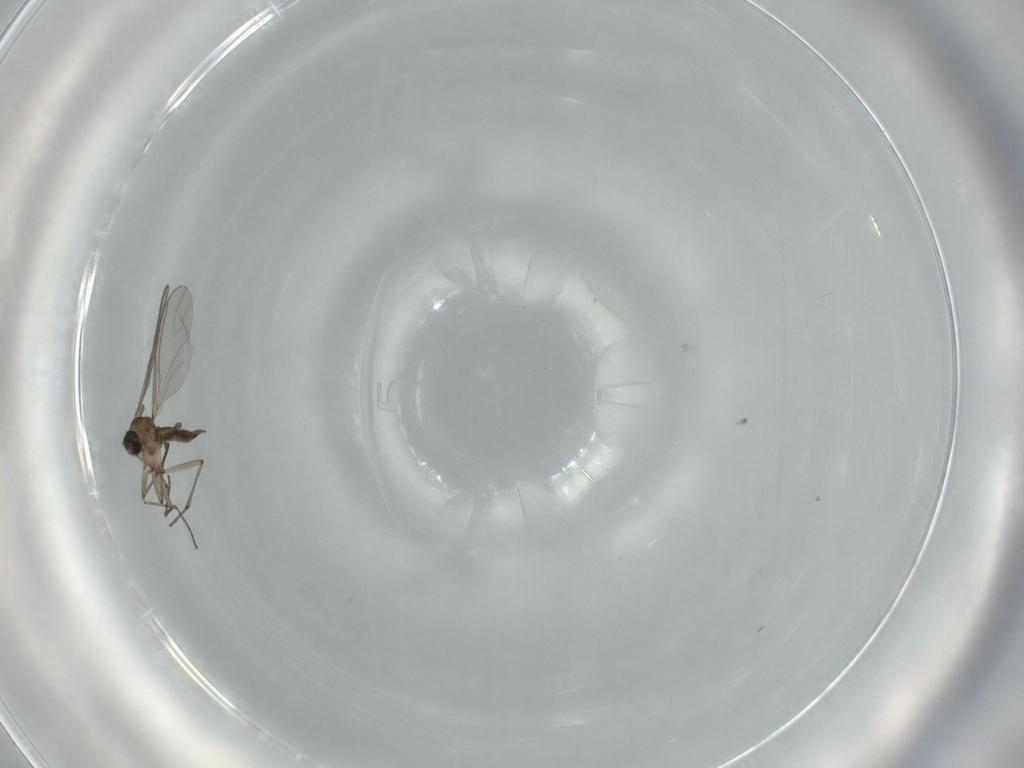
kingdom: Animalia
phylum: Arthropoda
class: Insecta
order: Diptera
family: Sciaridae
